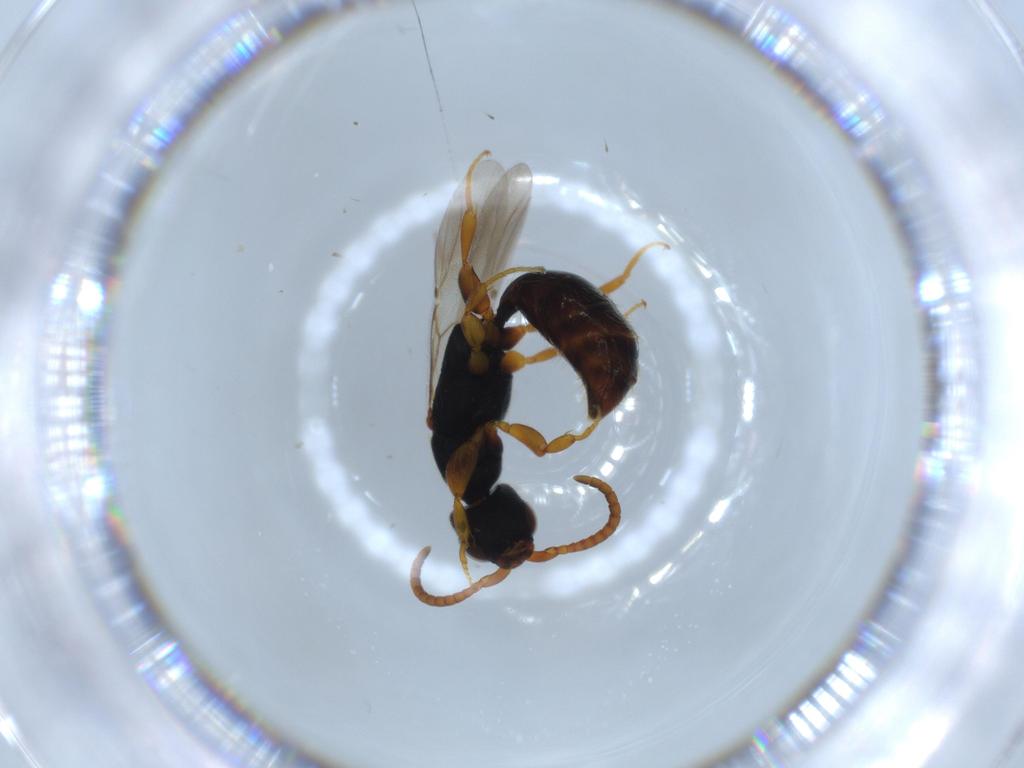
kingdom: Animalia
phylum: Arthropoda
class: Insecta
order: Hymenoptera
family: Bethylidae
